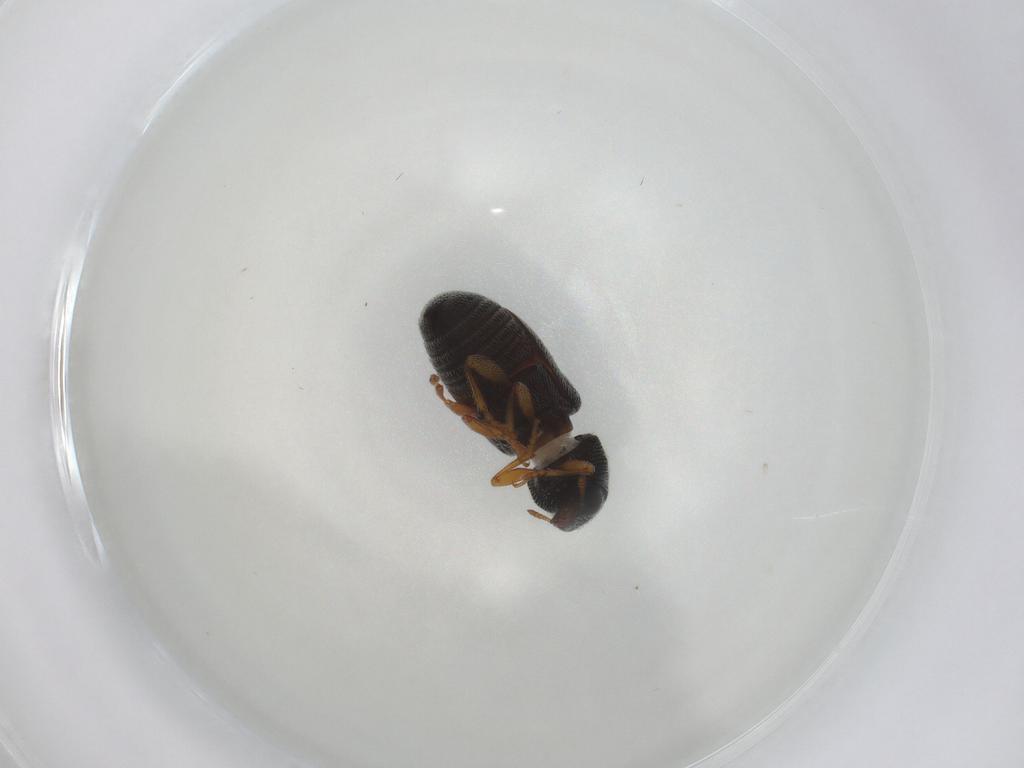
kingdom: Animalia
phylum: Arthropoda
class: Insecta
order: Coleoptera
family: Anthribidae
